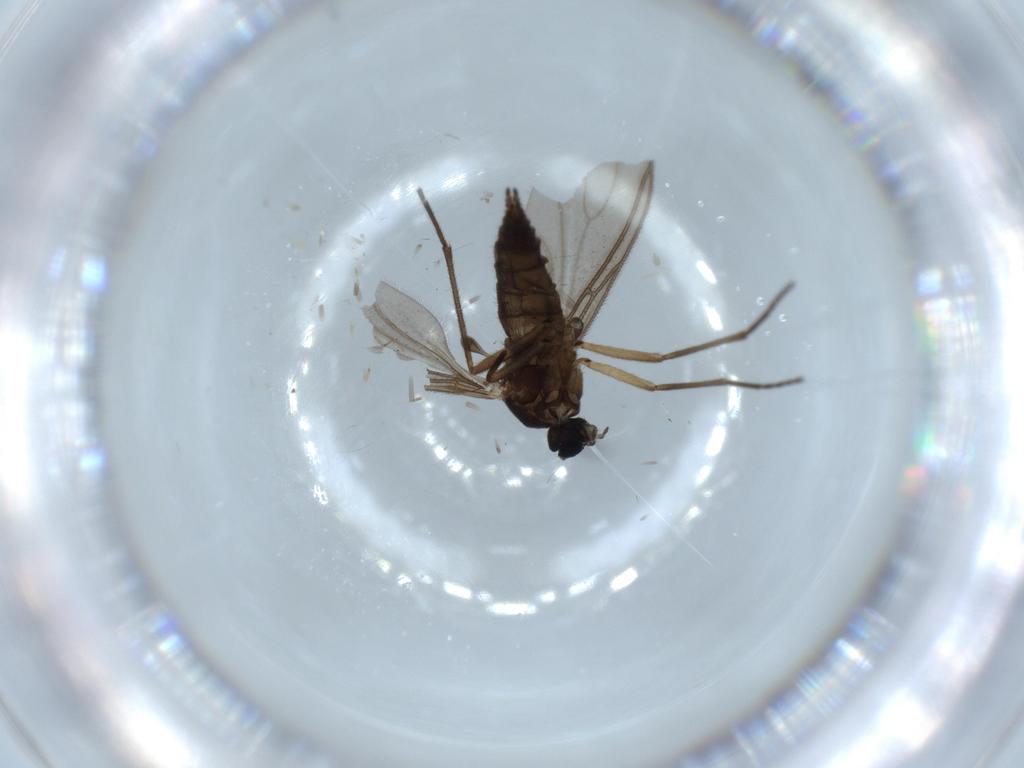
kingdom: Animalia
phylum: Arthropoda
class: Insecta
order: Diptera
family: Sciaridae
